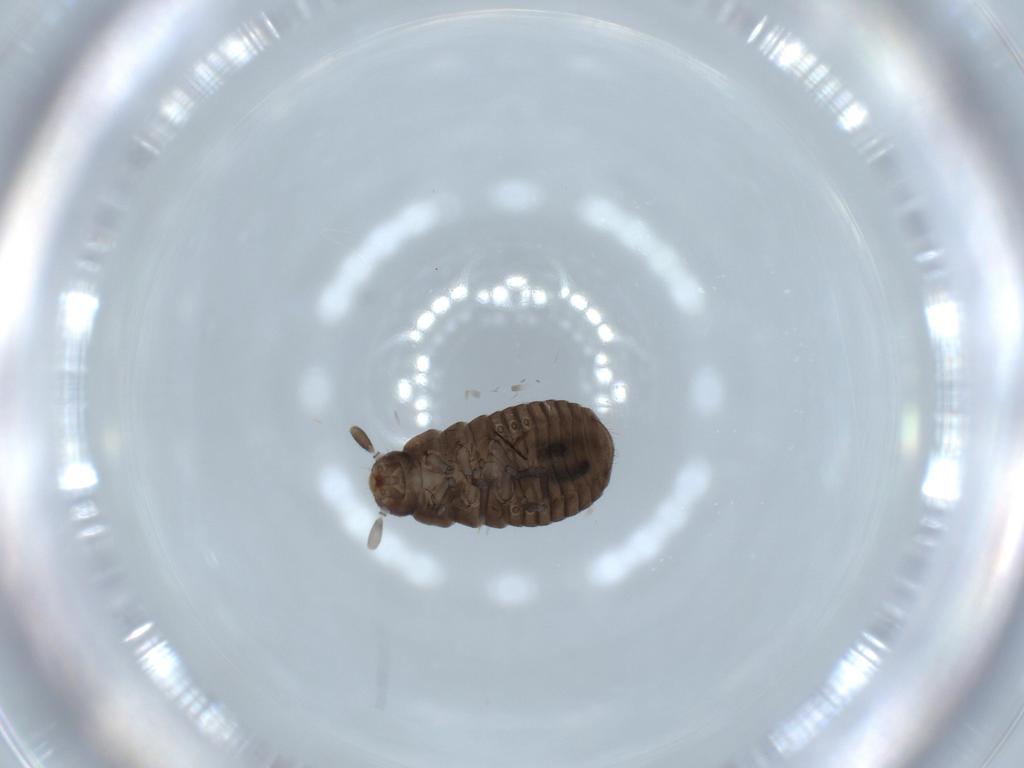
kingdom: Animalia
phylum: Arthropoda
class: Insecta
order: Coleoptera
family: Tenebrionidae
